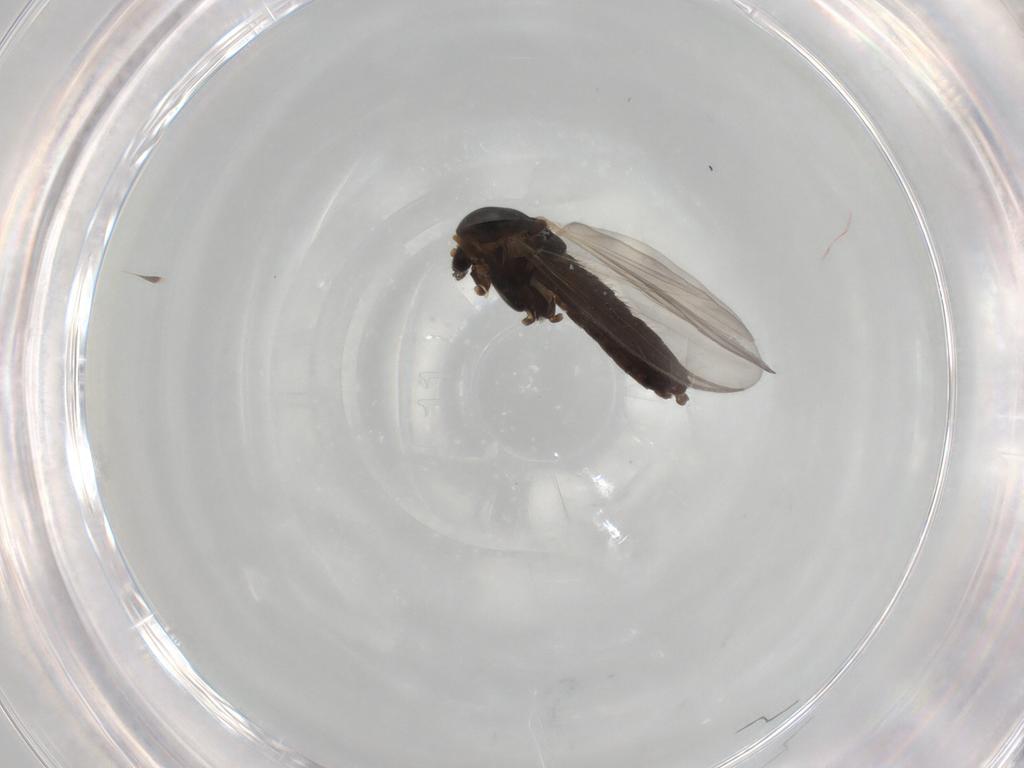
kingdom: Animalia
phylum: Arthropoda
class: Insecta
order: Diptera
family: Chironomidae
